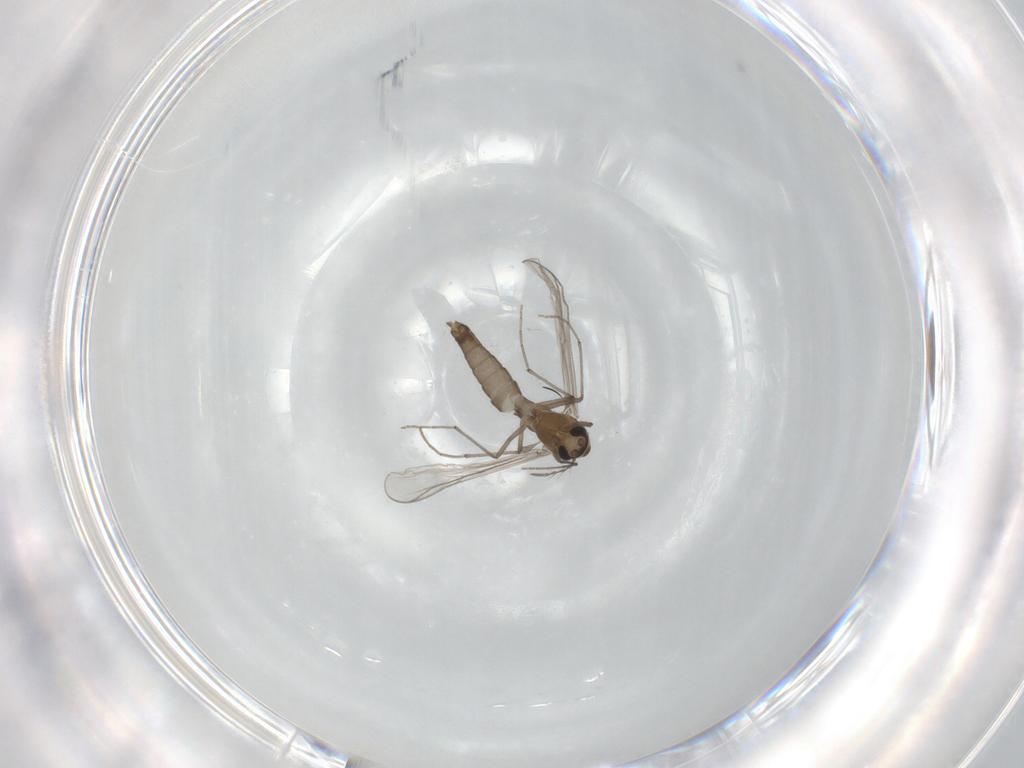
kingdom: Animalia
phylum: Arthropoda
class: Insecta
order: Diptera
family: Chironomidae
